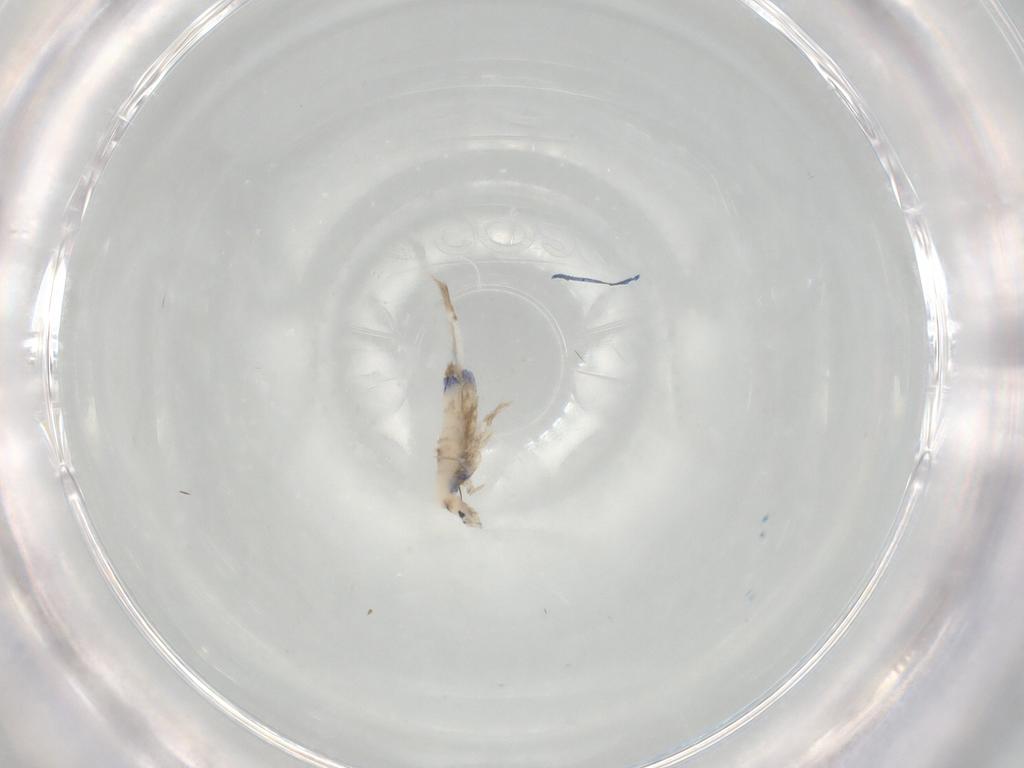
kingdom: Animalia
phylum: Arthropoda
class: Collembola
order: Entomobryomorpha
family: Entomobryidae
